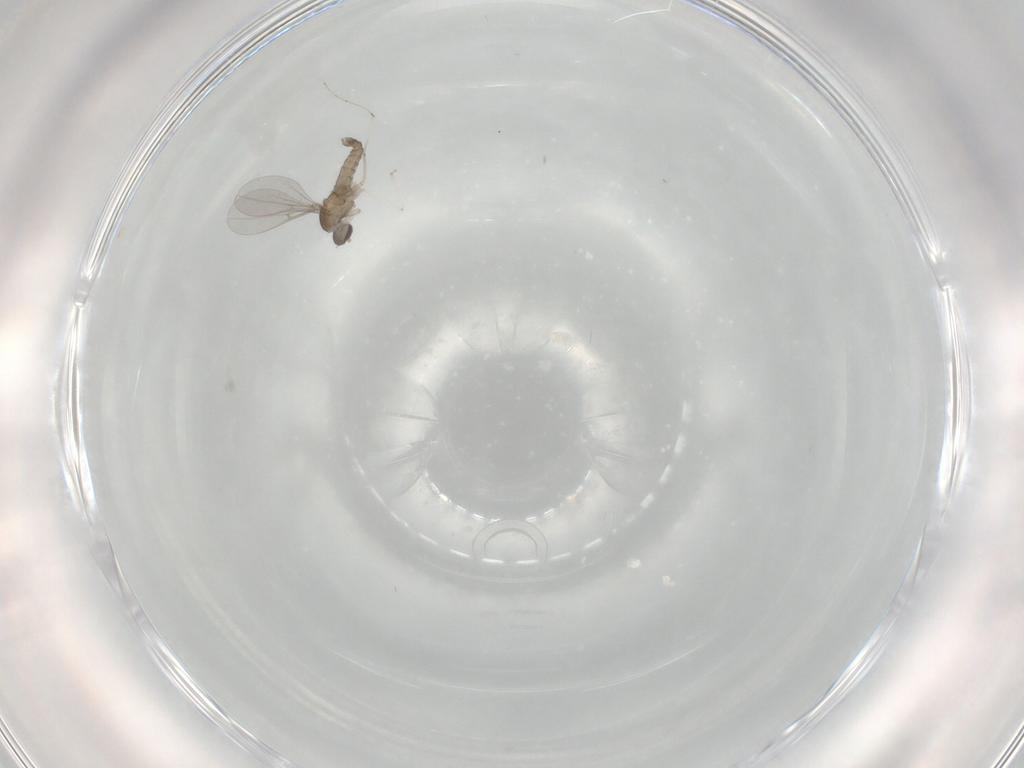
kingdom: Animalia
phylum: Arthropoda
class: Insecta
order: Diptera
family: Cecidomyiidae
